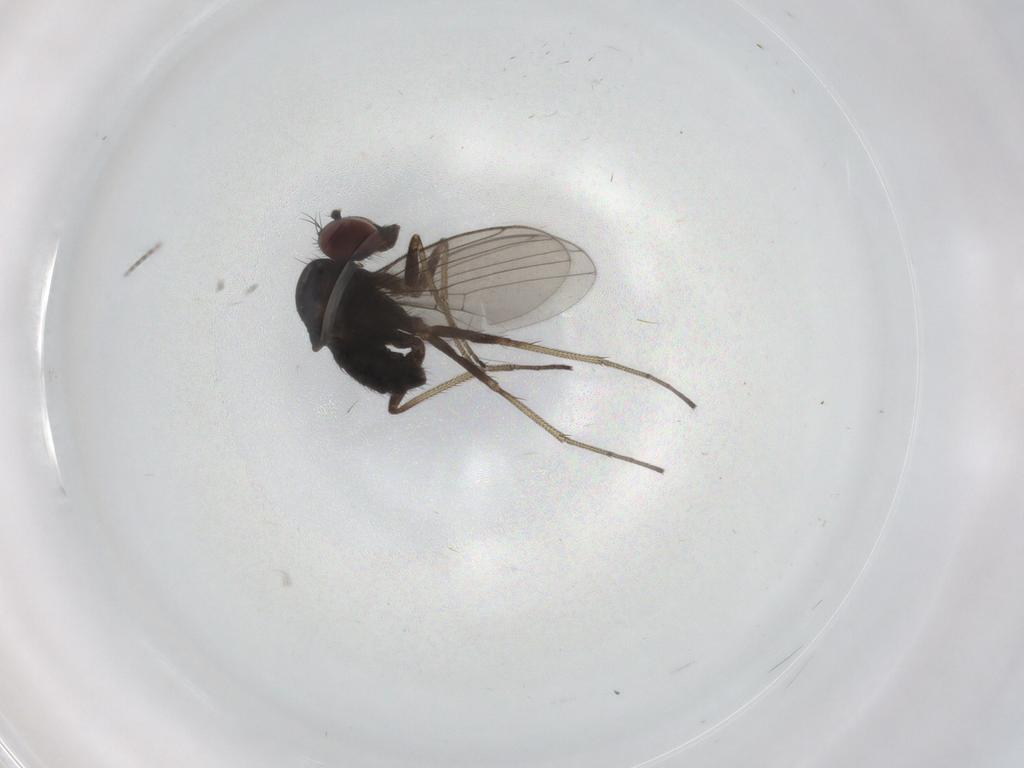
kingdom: Animalia
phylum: Arthropoda
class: Insecta
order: Diptera
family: Dolichopodidae
